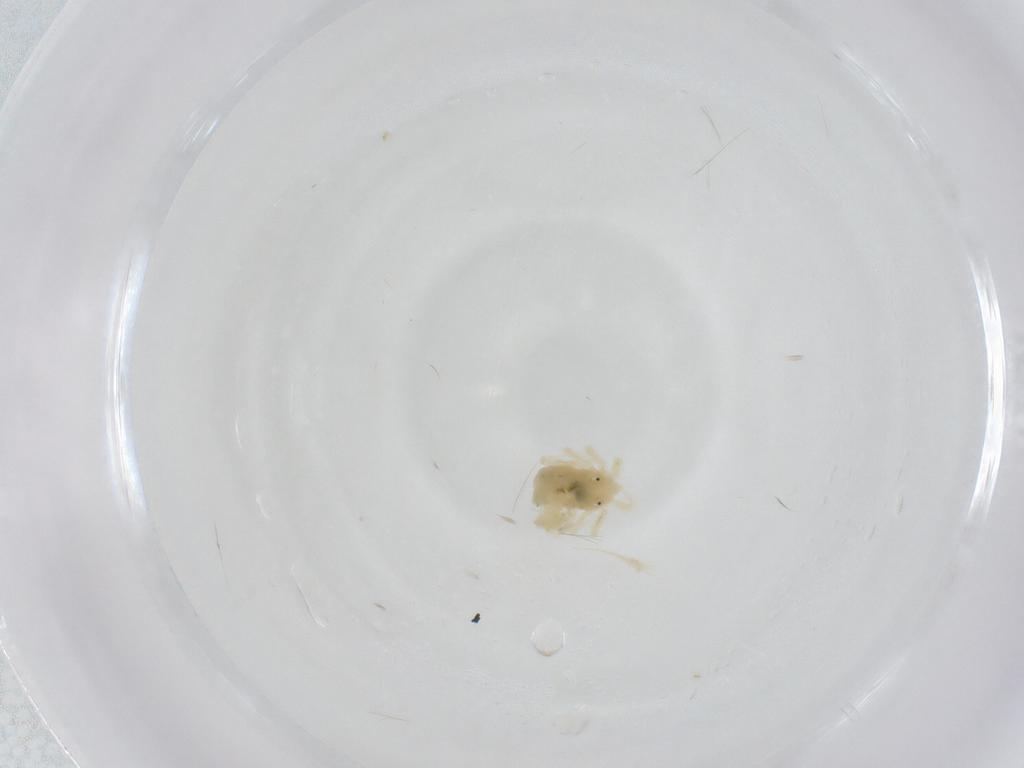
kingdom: Animalia
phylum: Arthropoda
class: Arachnida
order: Trombidiformes
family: Anystidae
